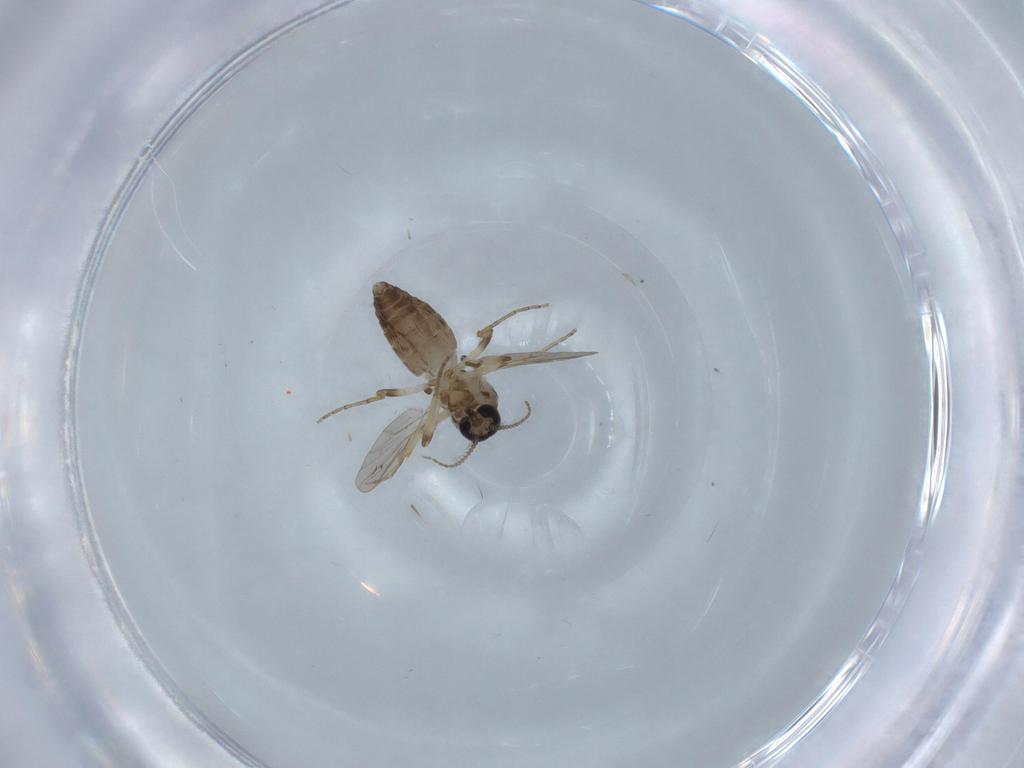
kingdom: Animalia
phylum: Arthropoda
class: Insecta
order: Diptera
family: Ceratopogonidae
